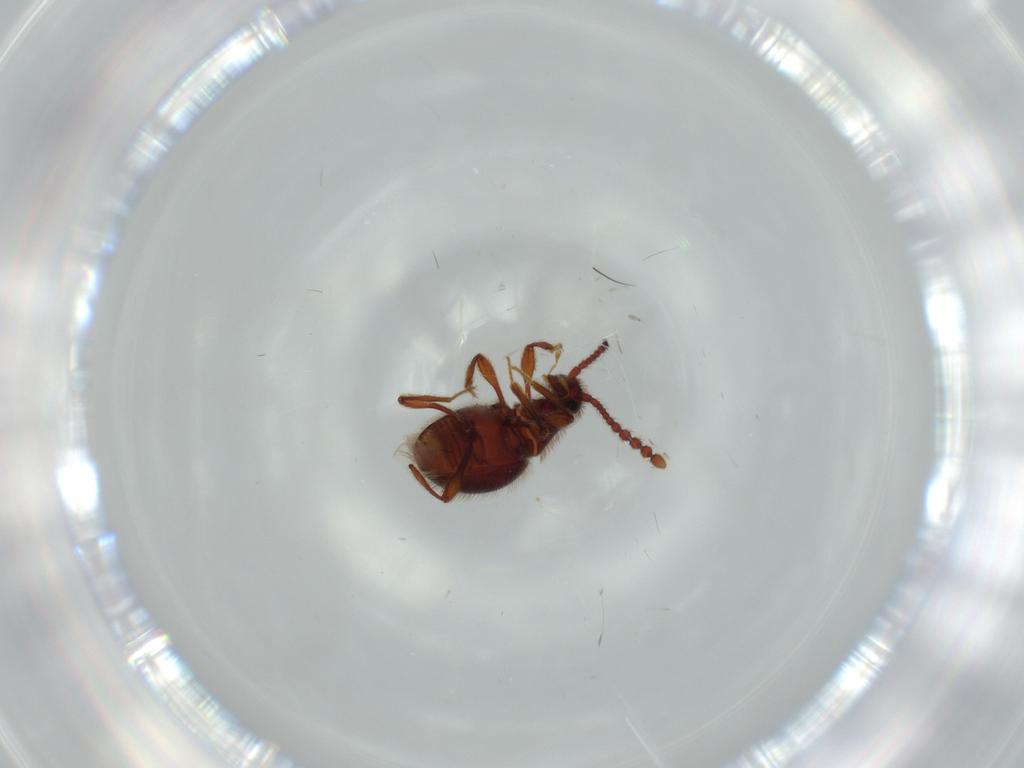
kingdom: Animalia
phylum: Arthropoda
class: Insecta
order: Coleoptera
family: Staphylinidae
